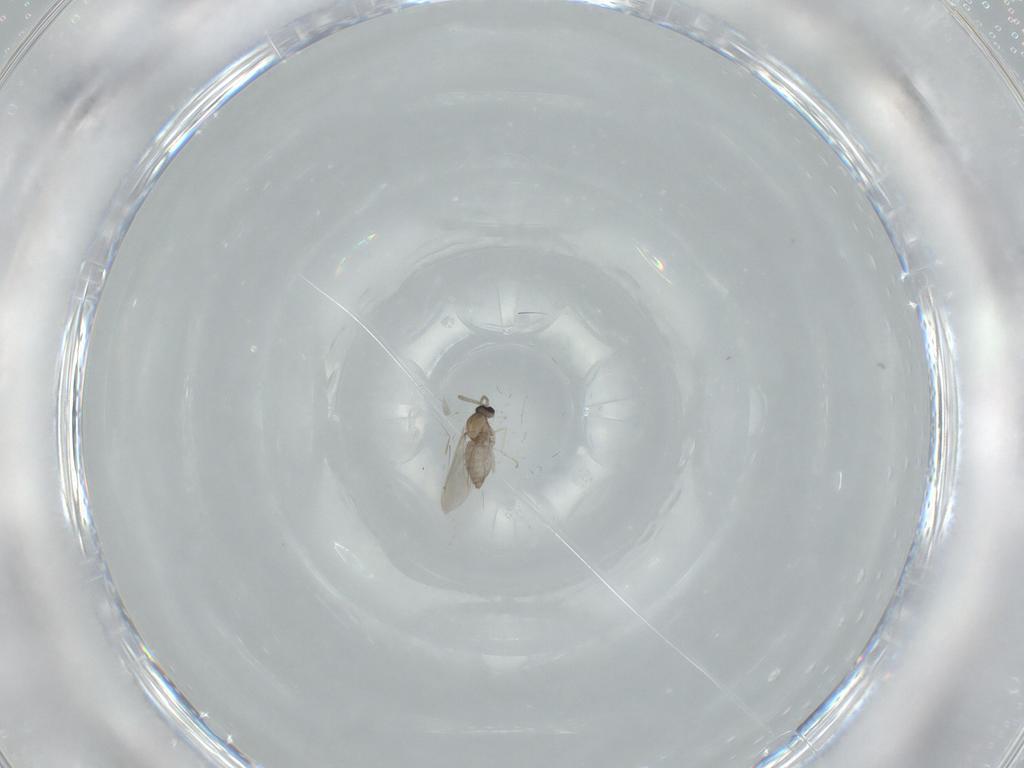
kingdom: Animalia
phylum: Arthropoda
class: Insecta
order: Diptera
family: Cecidomyiidae
